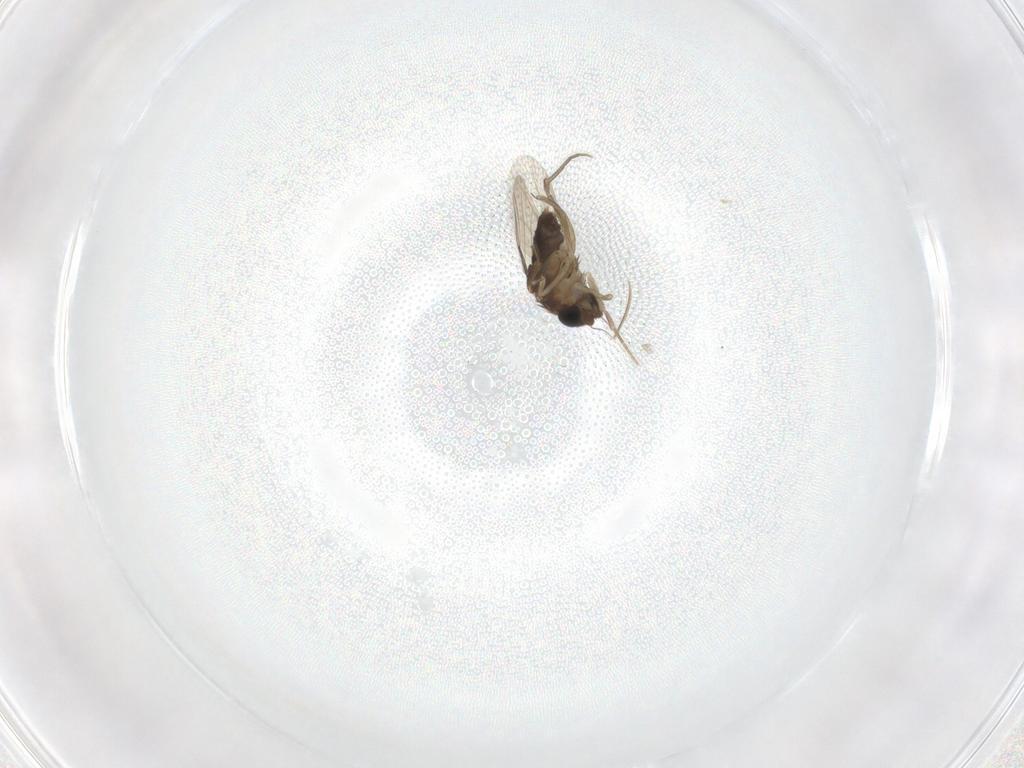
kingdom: Animalia
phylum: Arthropoda
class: Insecta
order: Diptera
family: Phoridae
